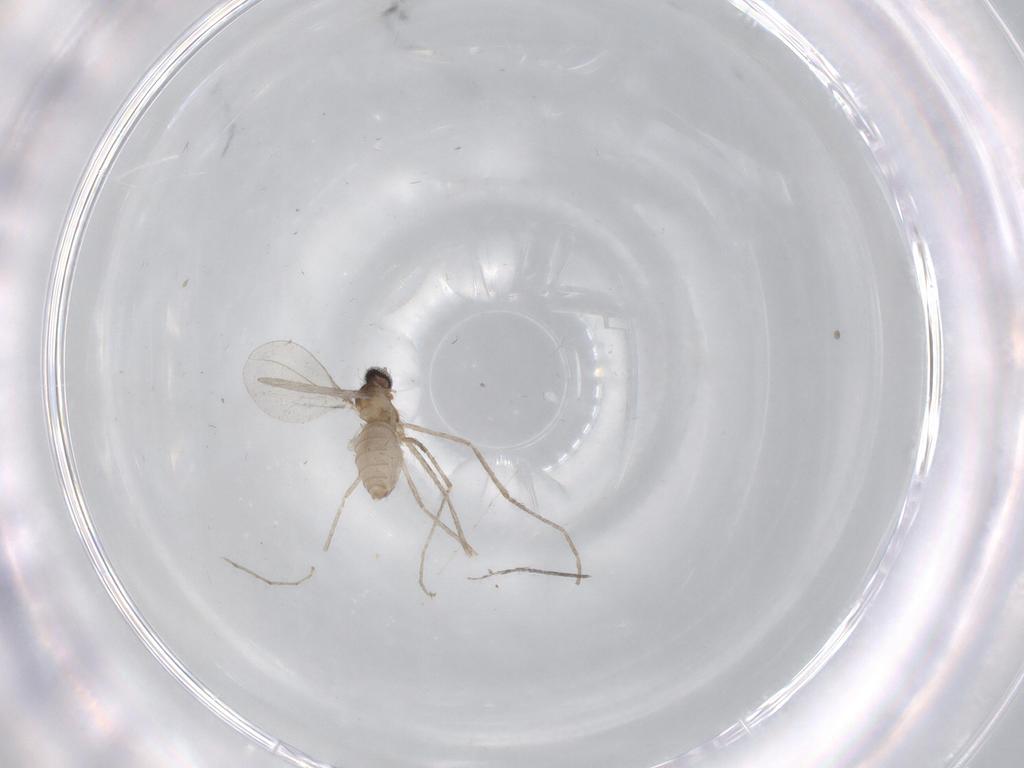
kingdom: Animalia
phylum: Arthropoda
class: Insecta
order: Diptera
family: Cecidomyiidae
